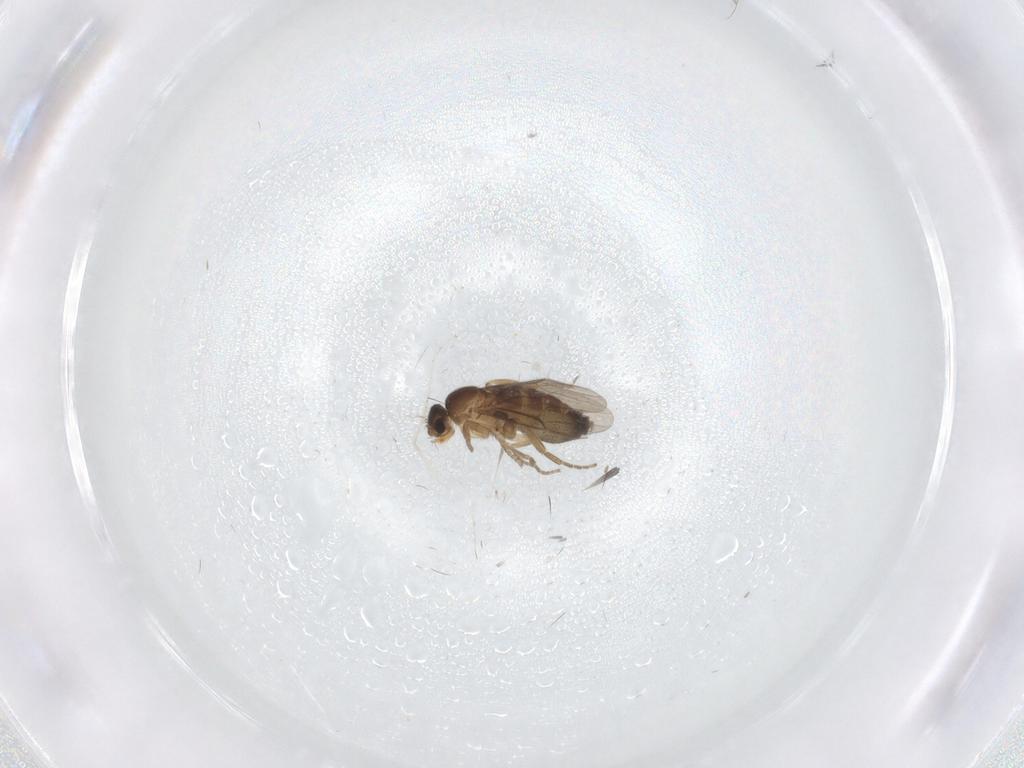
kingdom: Animalia
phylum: Arthropoda
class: Insecta
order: Diptera
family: Phoridae
